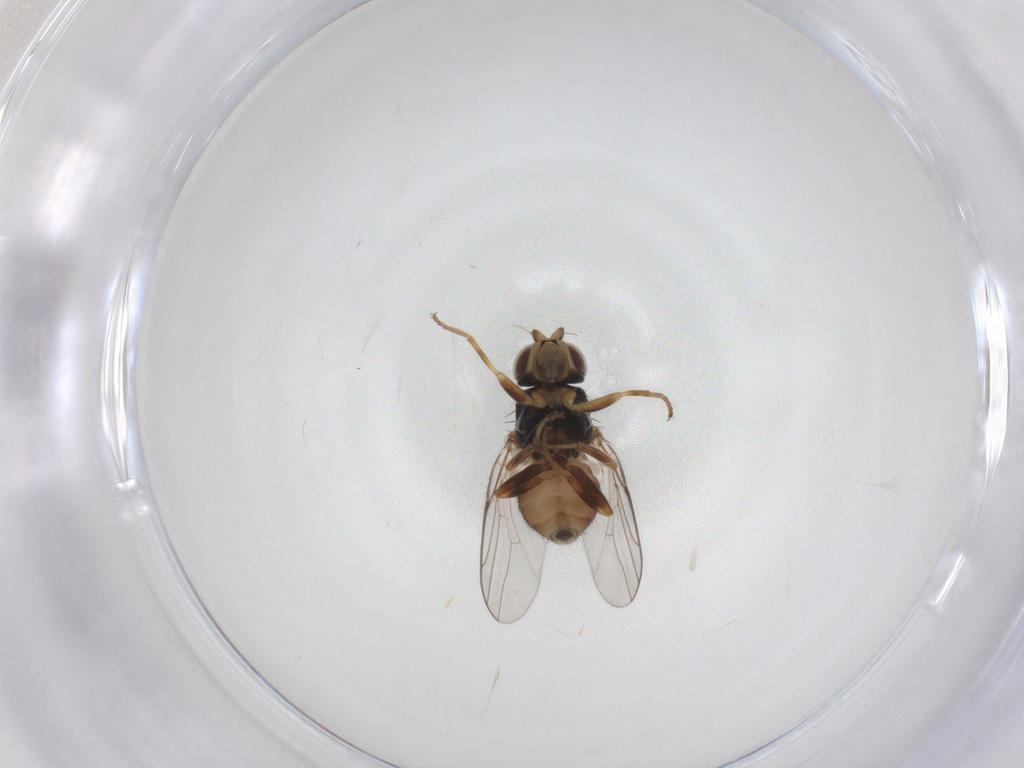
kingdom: Animalia
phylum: Arthropoda
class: Insecta
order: Diptera
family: Chloropidae
